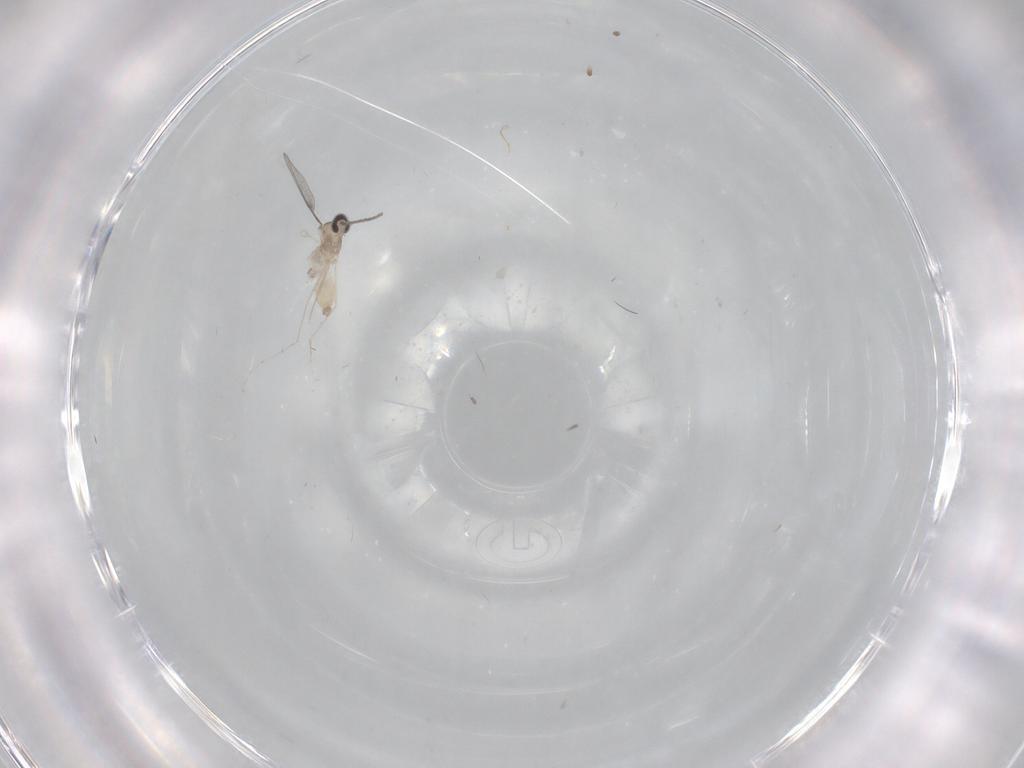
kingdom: Animalia
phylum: Arthropoda
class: Insecta
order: Diptera
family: Cecidomyiidae
